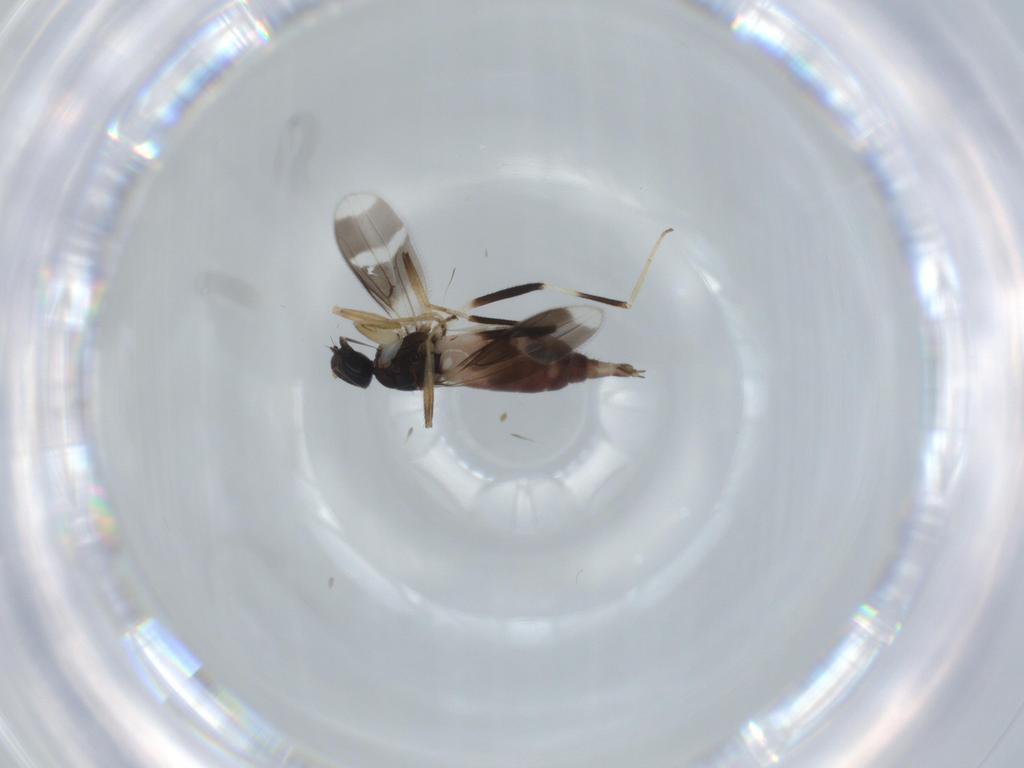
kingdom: Animalia
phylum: Arthropoda
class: Insecta
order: Diptera
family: Hybotidae
